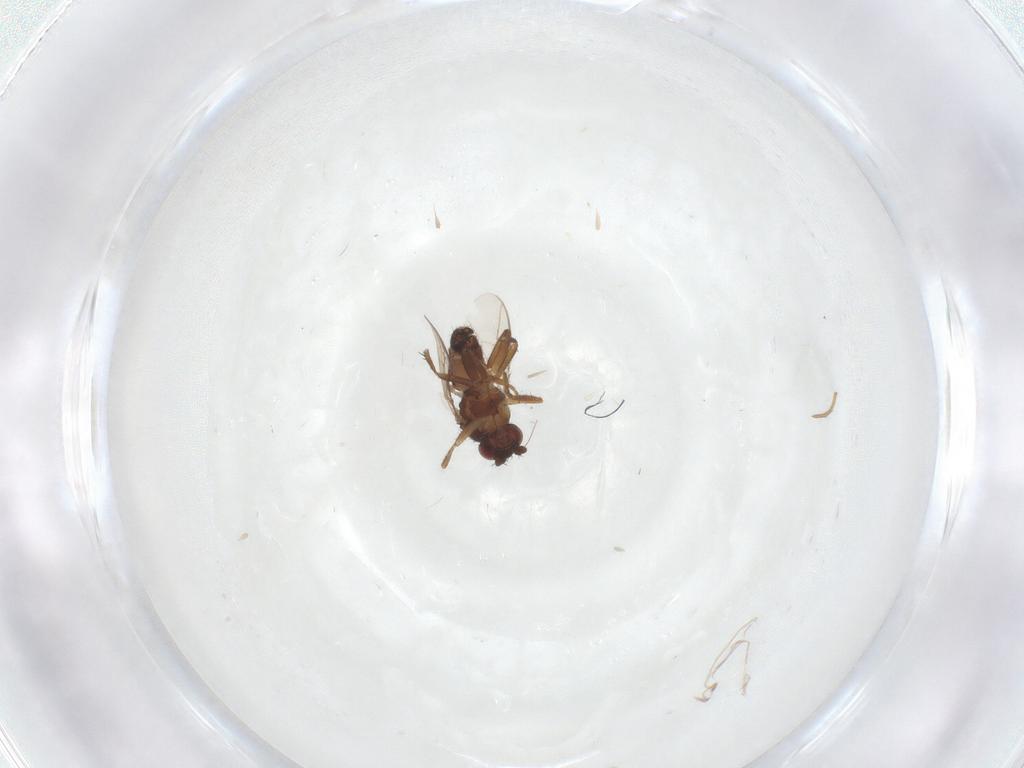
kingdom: Animalia
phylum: Arthropoda
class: Insecta
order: Diptera
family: Sphaeroceridae
